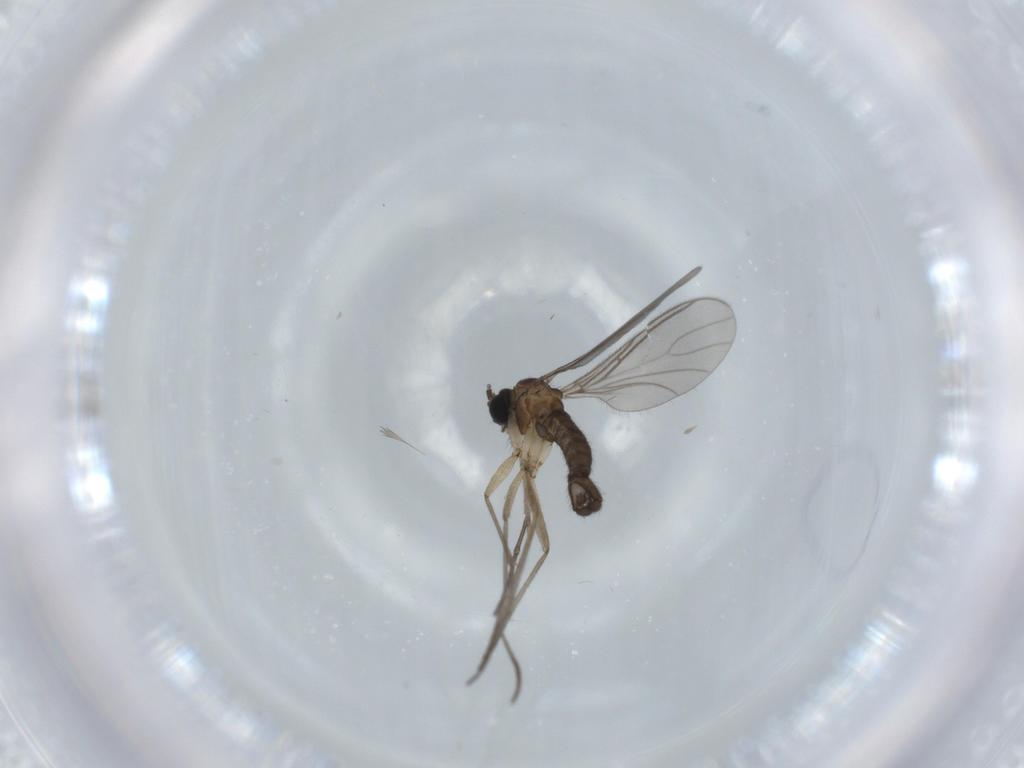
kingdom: Animalia
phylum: Arthropoda
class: Insecta
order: Diptera
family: Sciaridae
